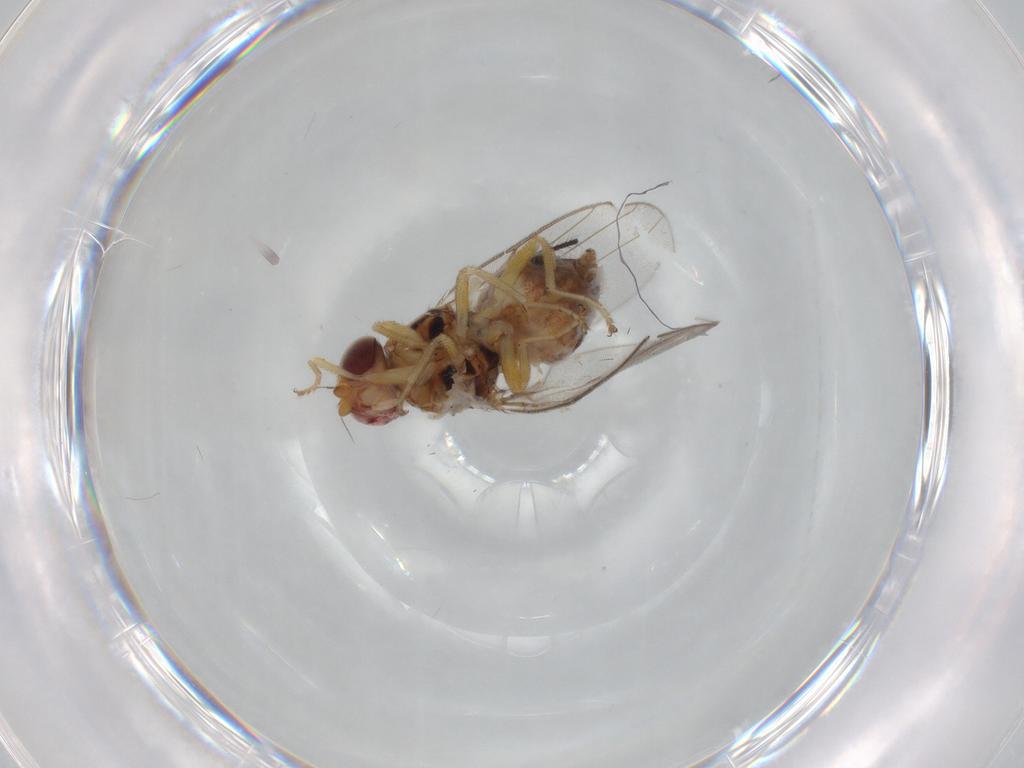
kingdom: Animalia
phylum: Arthropoda
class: Insecta
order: Diptera
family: Chloropidae
